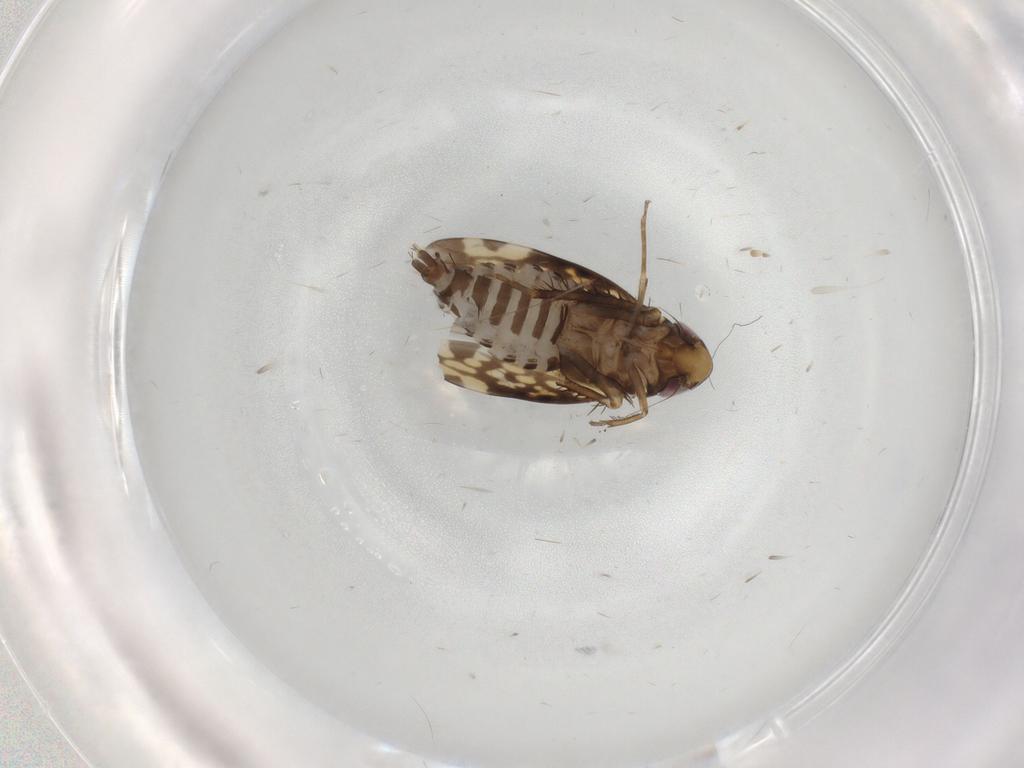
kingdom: Animalia
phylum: Arthropoda
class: Insecta
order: Hemiptera
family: Cicadellidae
